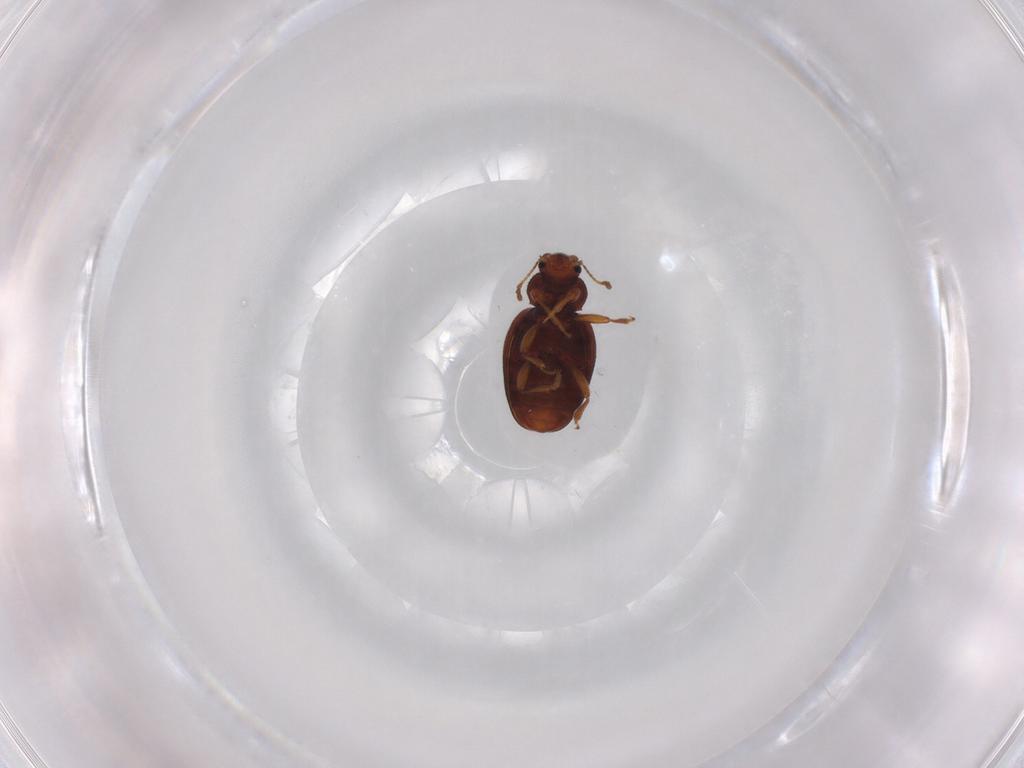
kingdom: Animalia
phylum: Arthropoda
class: Insecta
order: Coleoptera
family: Latridiidae
